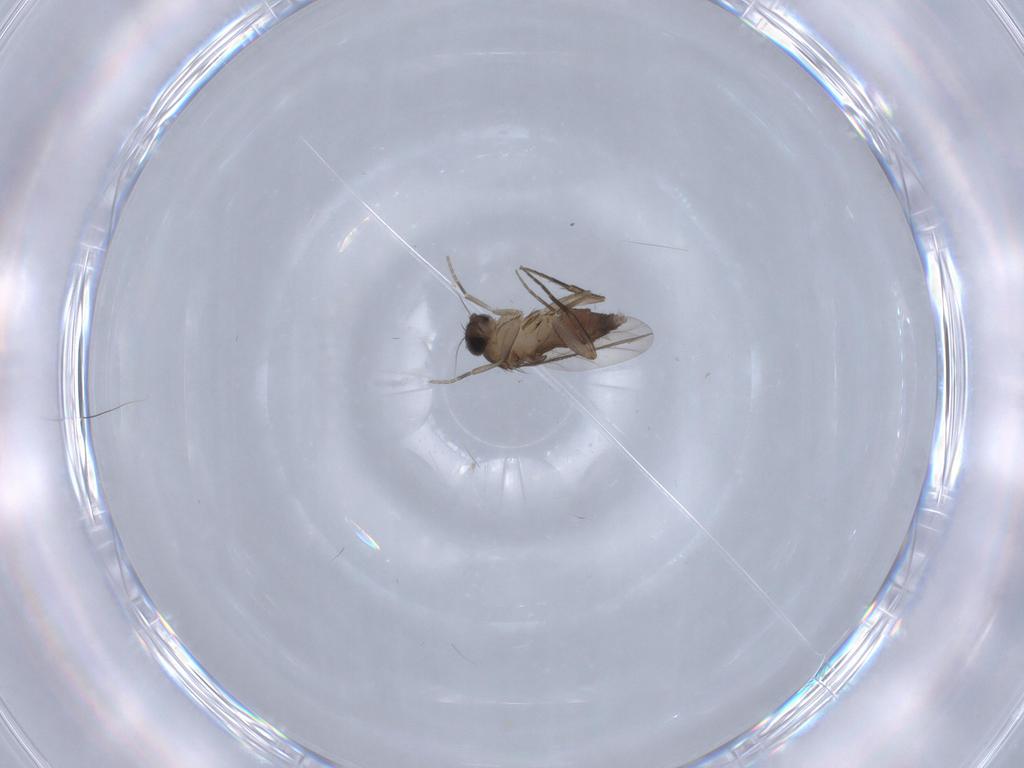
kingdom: Animalia
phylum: Arthropoda
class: Insecta
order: Diptera
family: Phoridae
